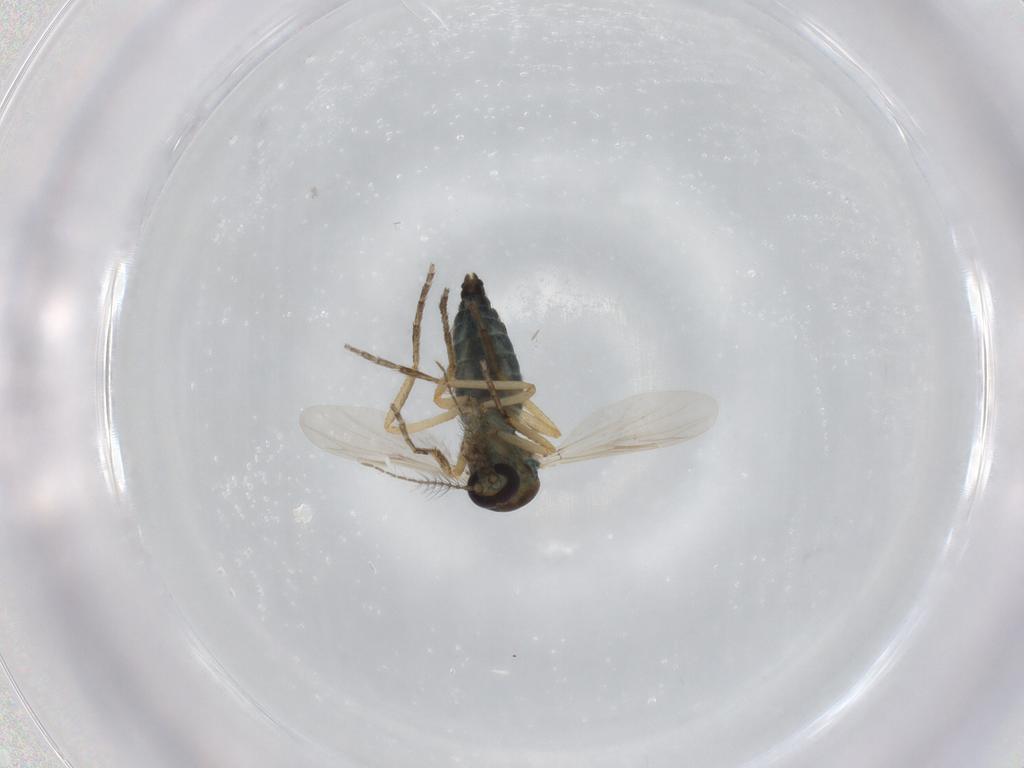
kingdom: Animalia
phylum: Arthropoda
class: Insecta
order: Diptera
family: Ceratopogonidae
